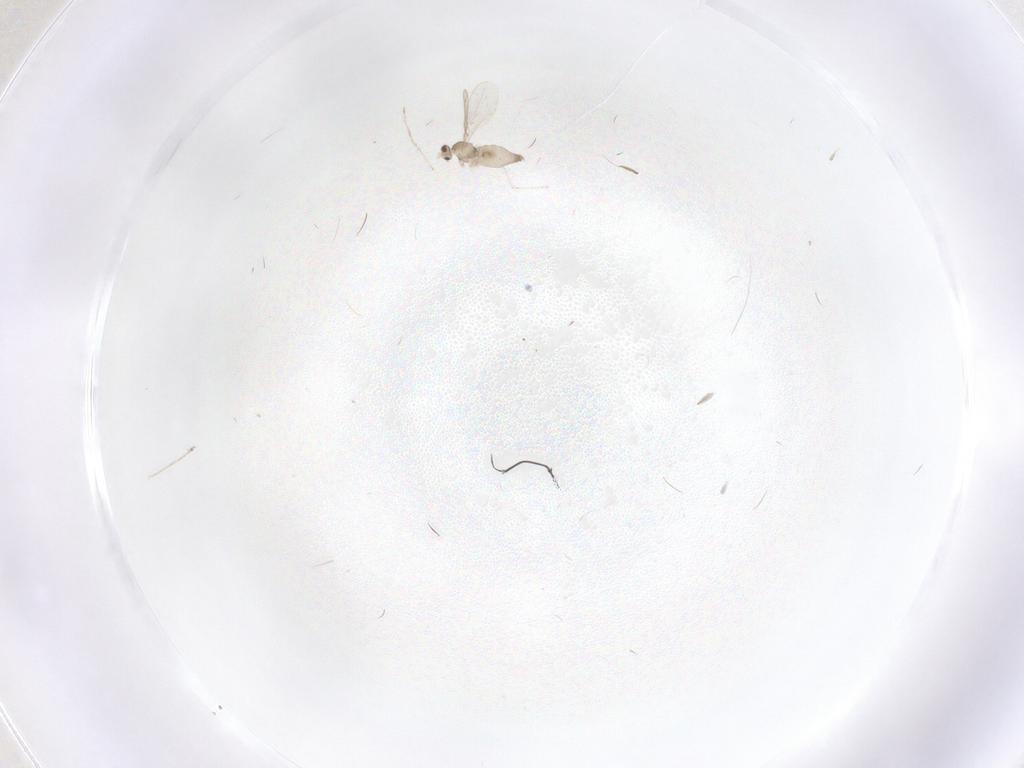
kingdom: Animalia
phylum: Arthropoda
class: Insecta
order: Diptera
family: Cecidomyiidae
